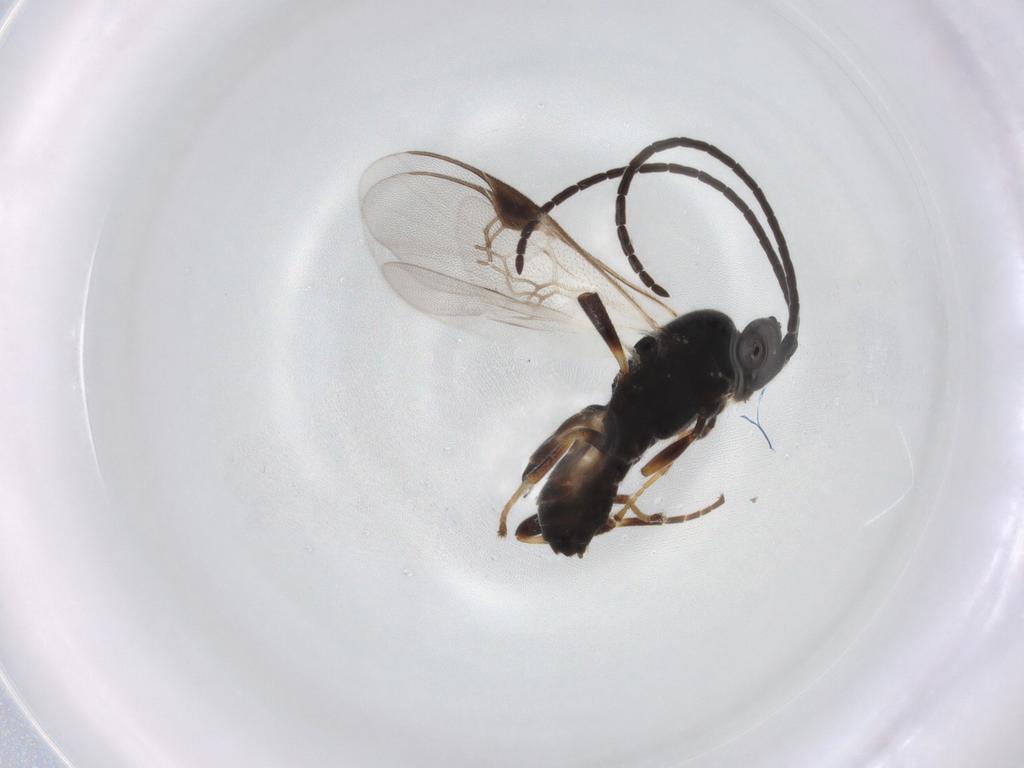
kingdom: Animalia
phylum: Arthropoda
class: Insecta
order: Hymenoptera
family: Braconidae
